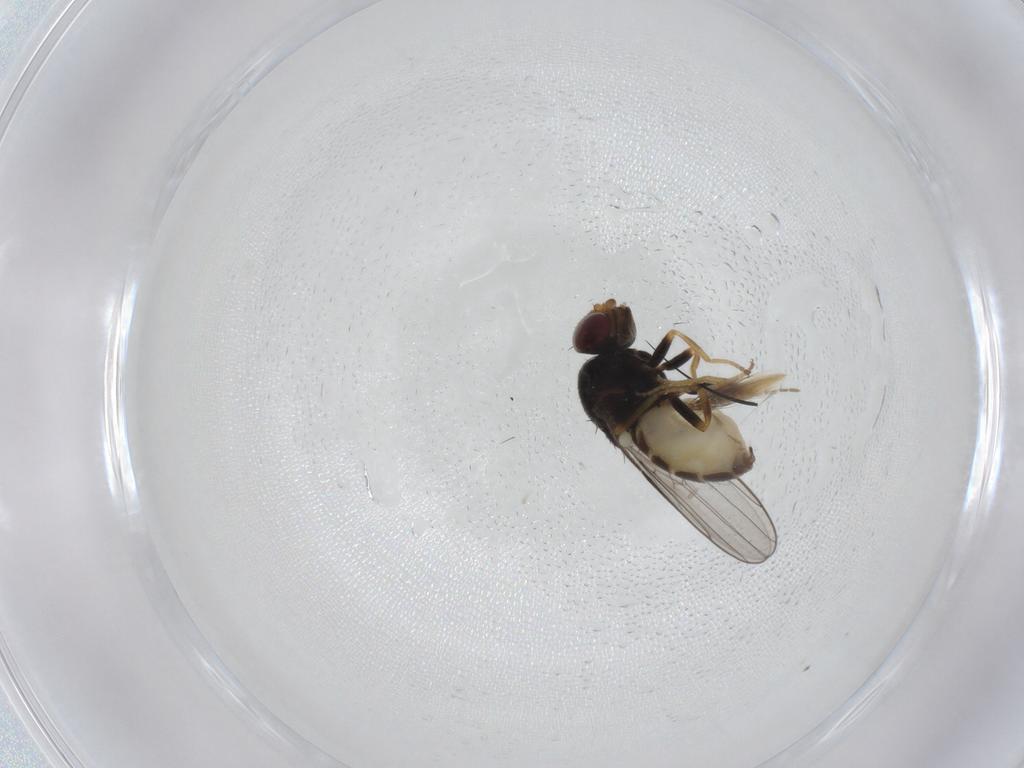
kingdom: Animalia
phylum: Arthropoda
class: Insecta
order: Diptera
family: Chloropidae
